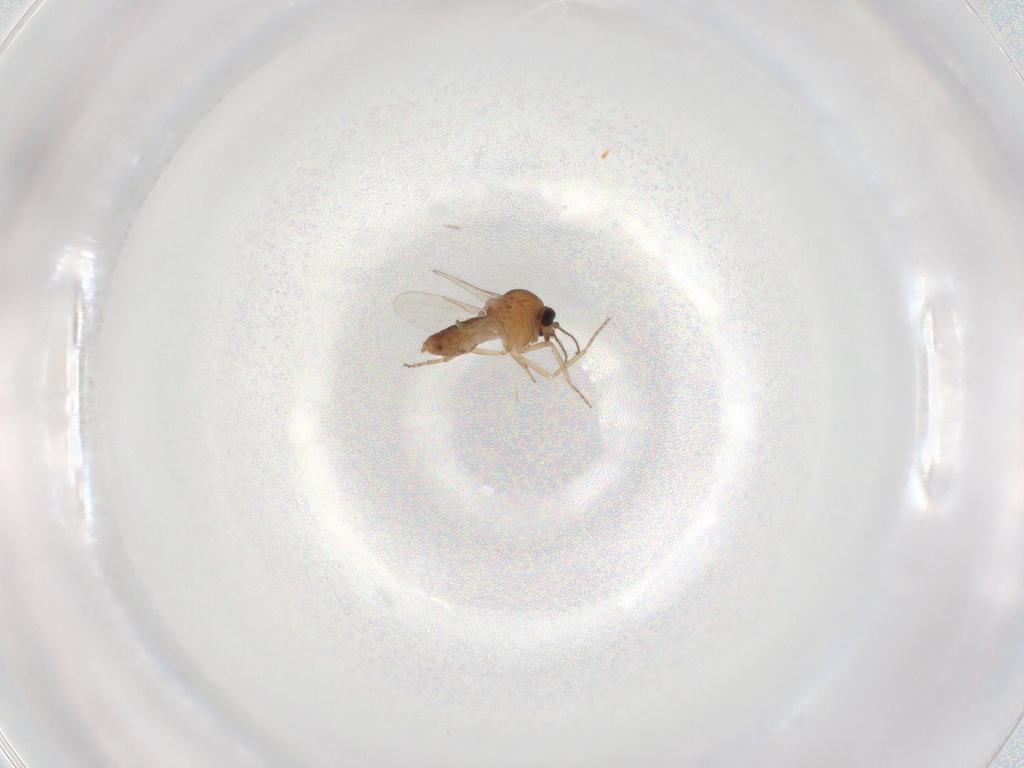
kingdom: Animalia
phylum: Arthropoda
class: Insecta
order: Diptera
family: Ceratopogonidae
